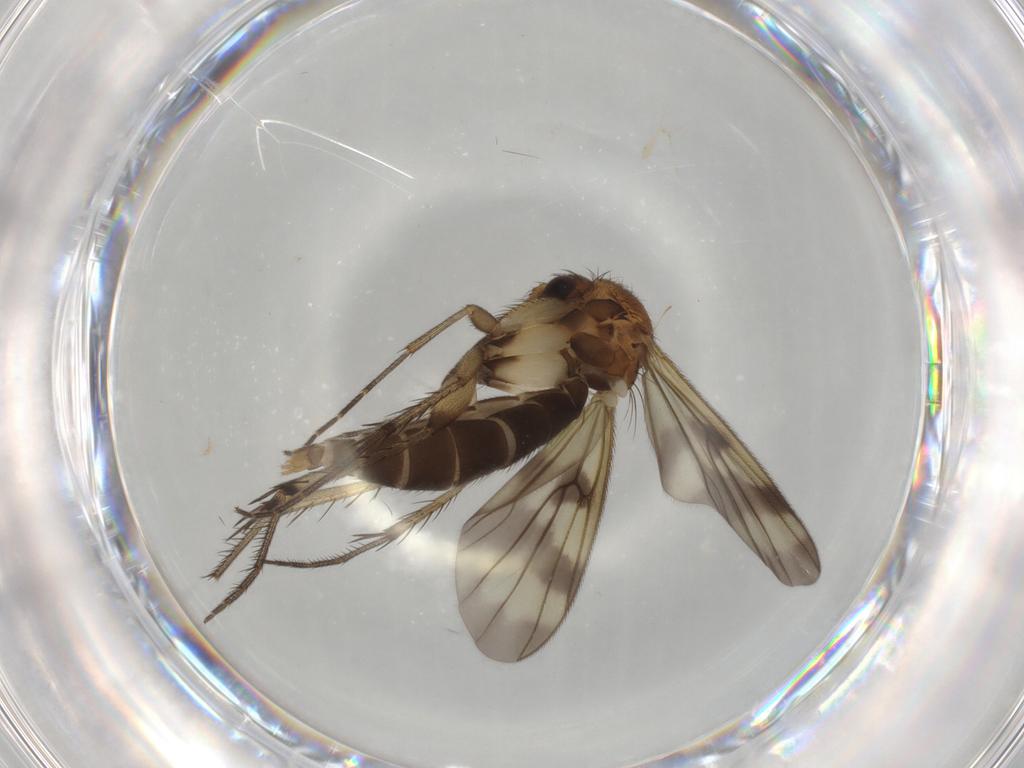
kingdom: Animalia
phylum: Arthropoda
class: Insecta
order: Diptera
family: Mycetophilidae
